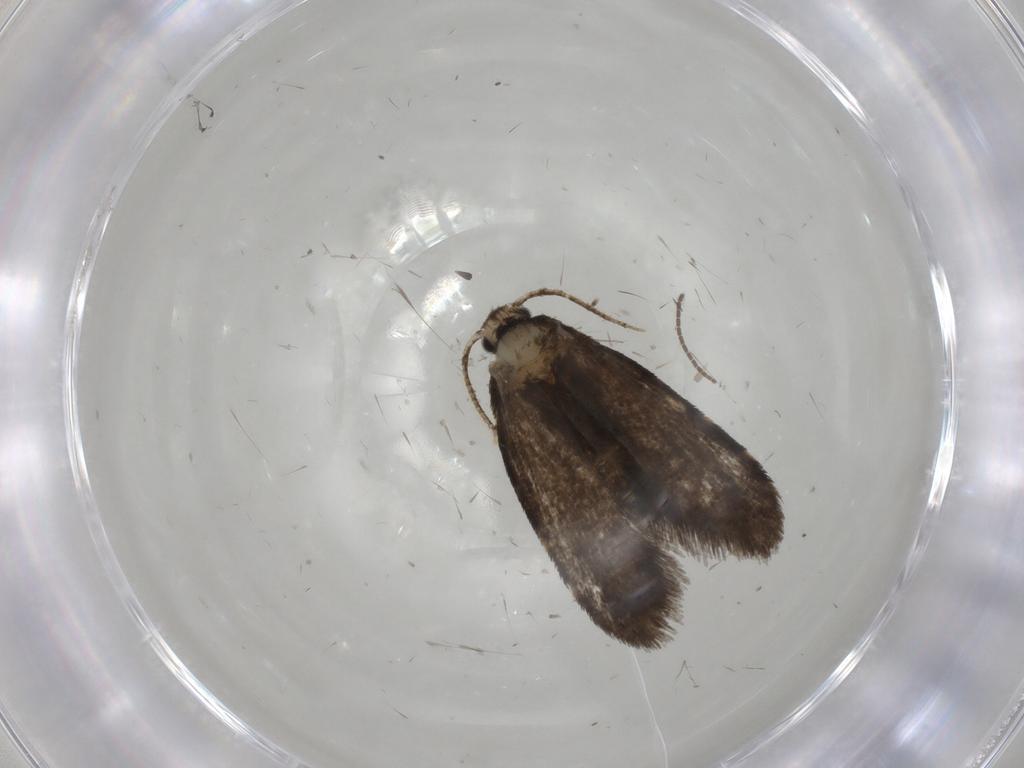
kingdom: Animalia
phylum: Arthropoda
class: Insecta
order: Lepidoptera
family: Psychidae
